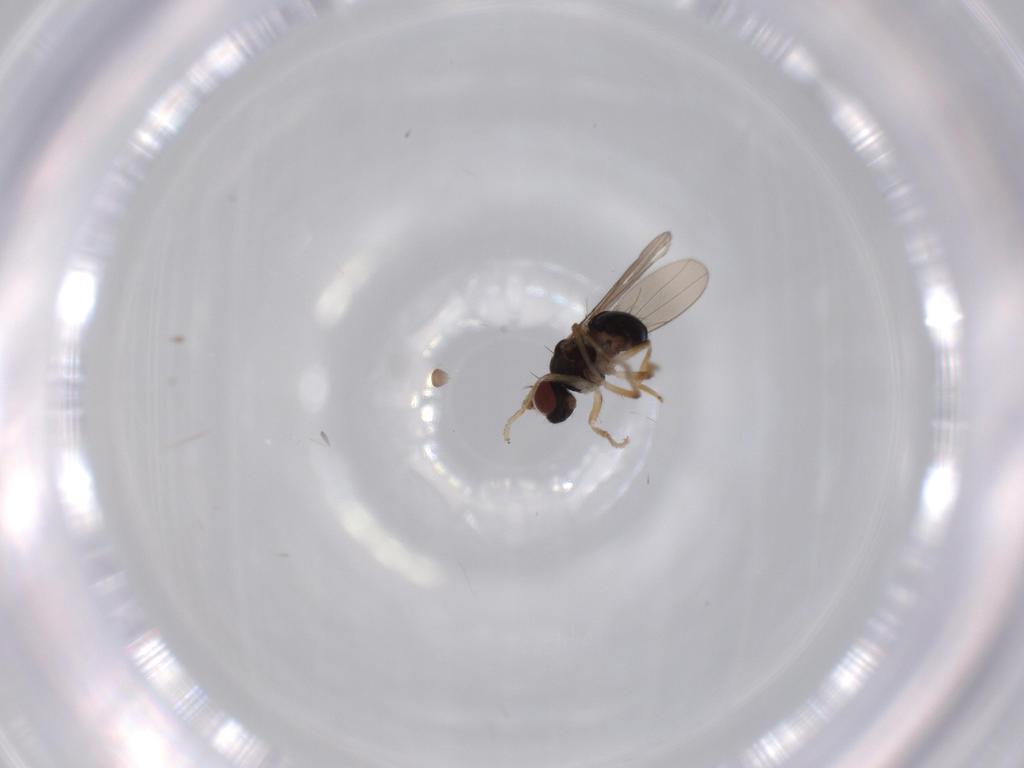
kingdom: Animalia
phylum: Arthropoda
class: Insecta
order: Diptera
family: Ephydridae
